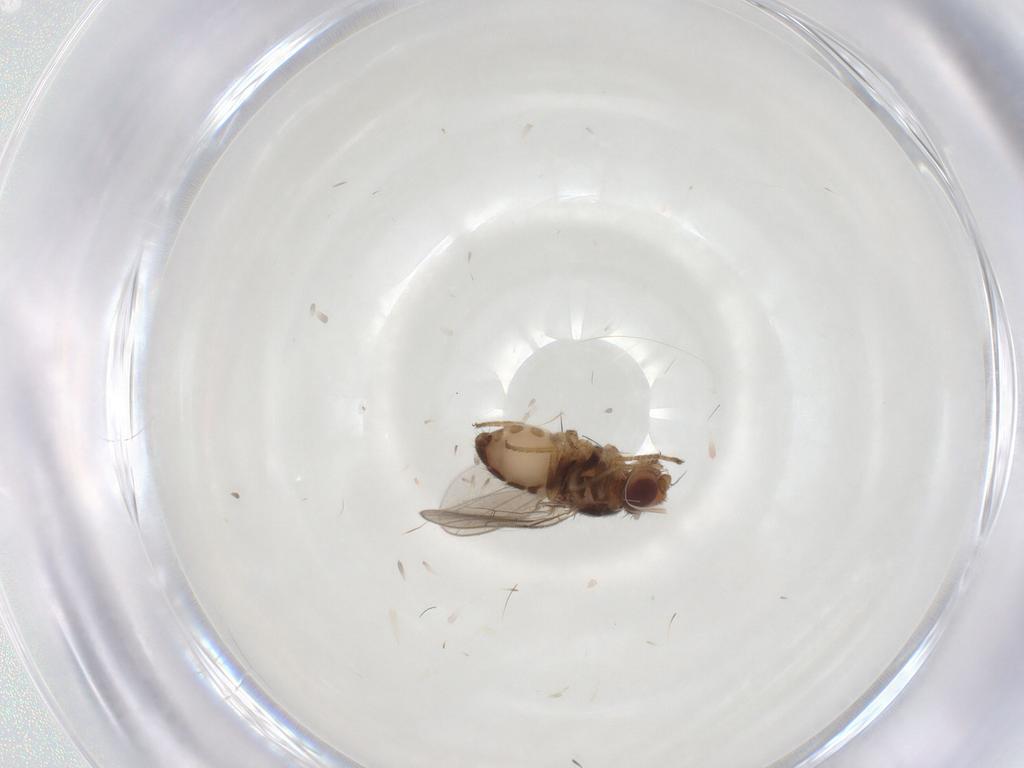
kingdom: Animalia
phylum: Arthropoda
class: Insecta
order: Diptera
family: Chloropidae
